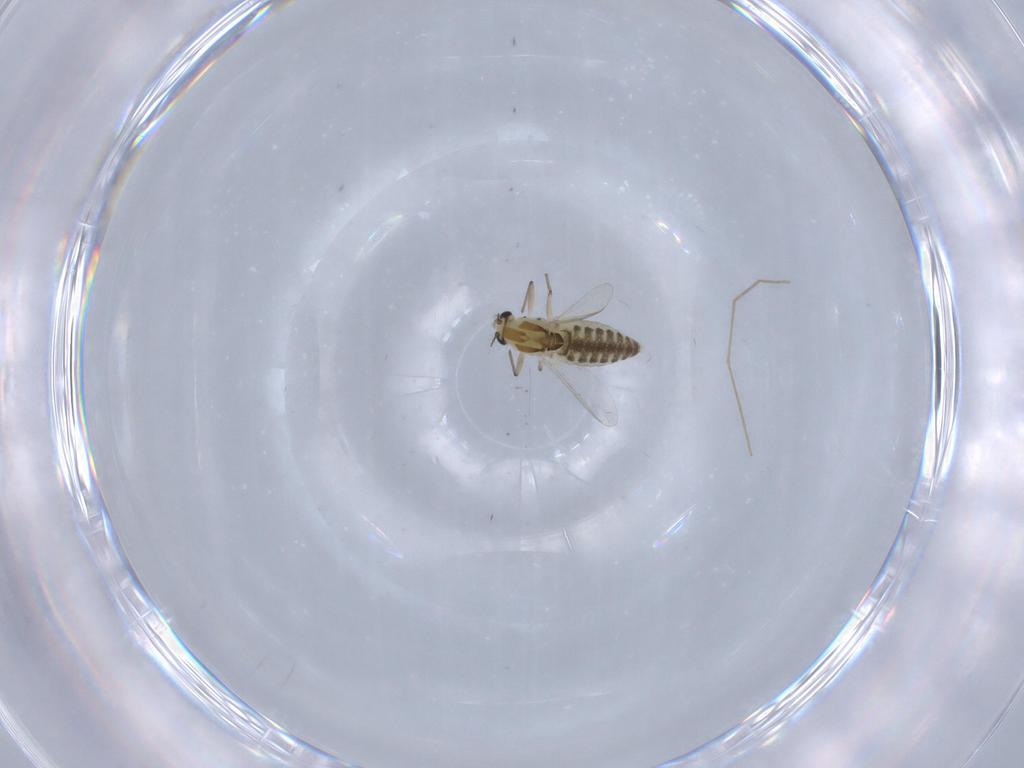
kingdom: Animalia
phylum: Arthropoda
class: Insecta
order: Diptera
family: Chironomidae
